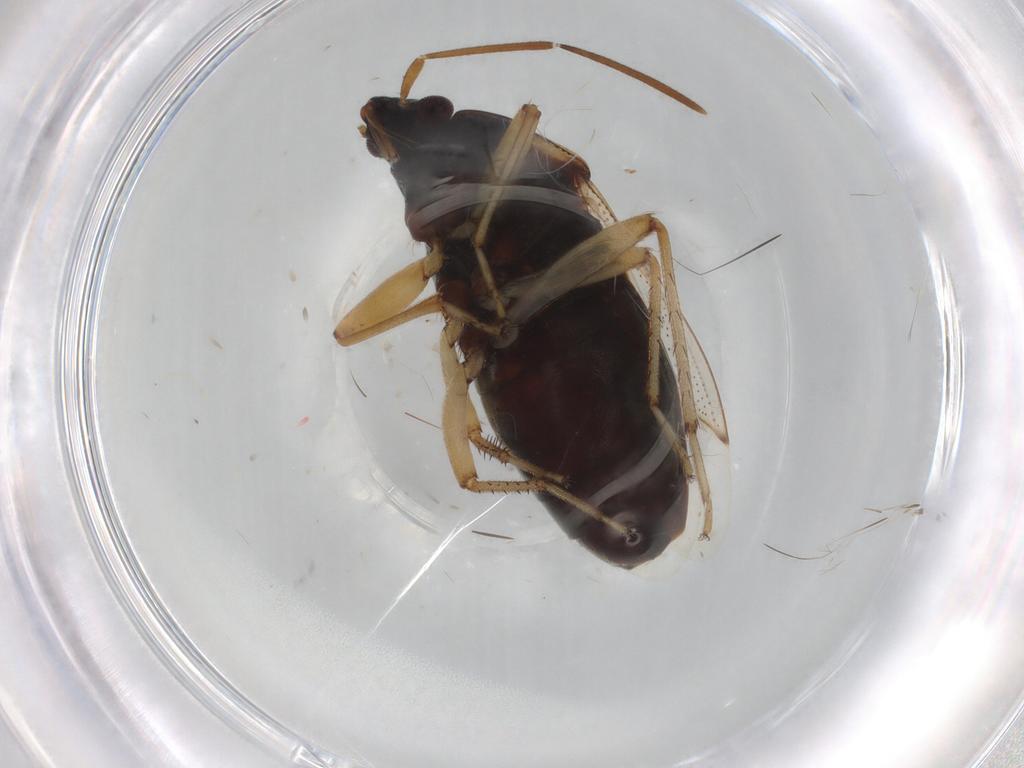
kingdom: Animalia
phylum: Arthropoda
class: Insecta
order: Hemiptera
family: Rhyparochromidae
